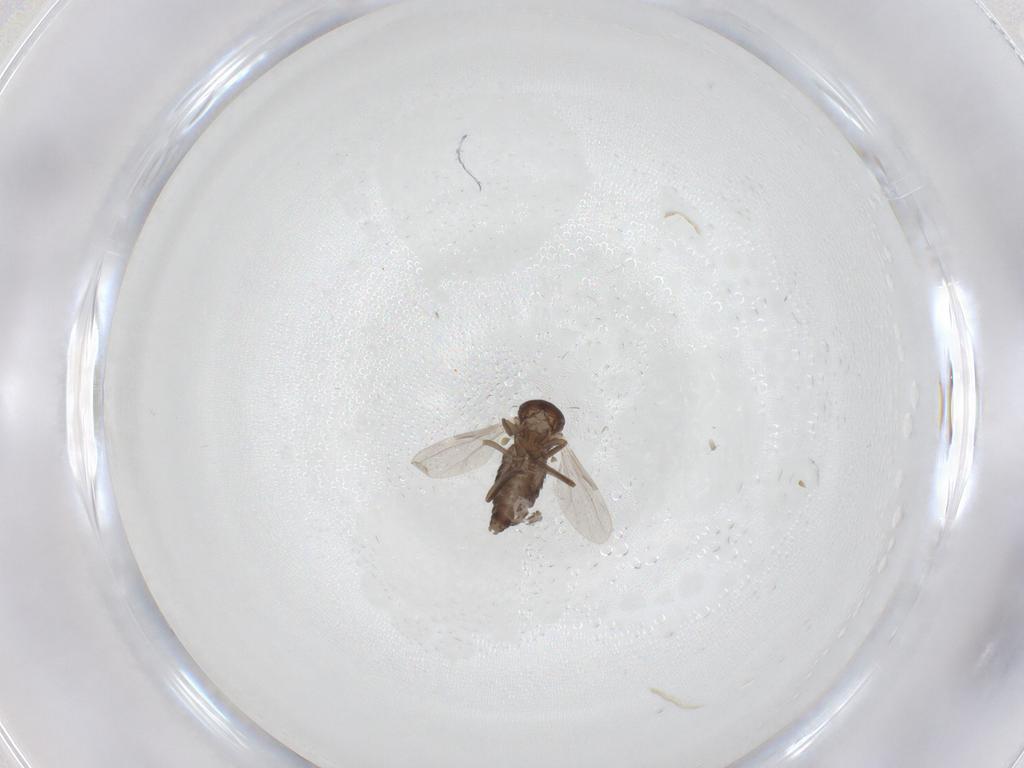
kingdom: Animalia
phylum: Arthropoda
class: Insecta
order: Diptera
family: Ceratopogonidae
